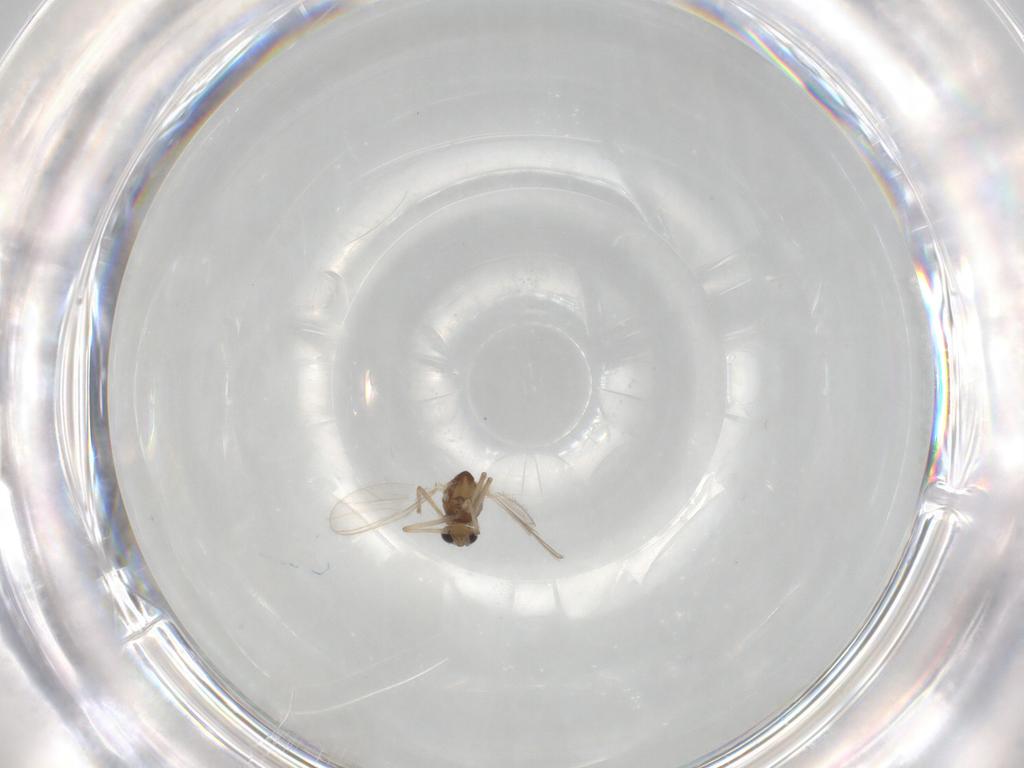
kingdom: Animalia
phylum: Arthropoda
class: Insecta
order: Diptera
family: Chironomidae
